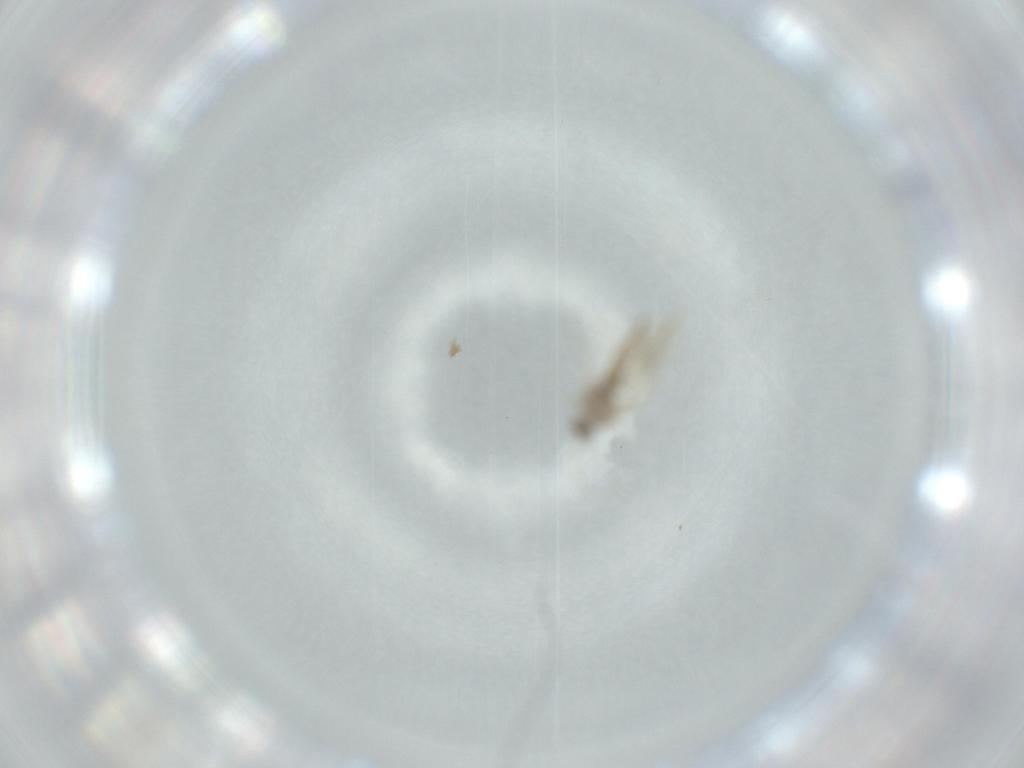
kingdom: Animalia
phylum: Arthropoda
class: Insecta
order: Diptera
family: Cecidomyiidae
